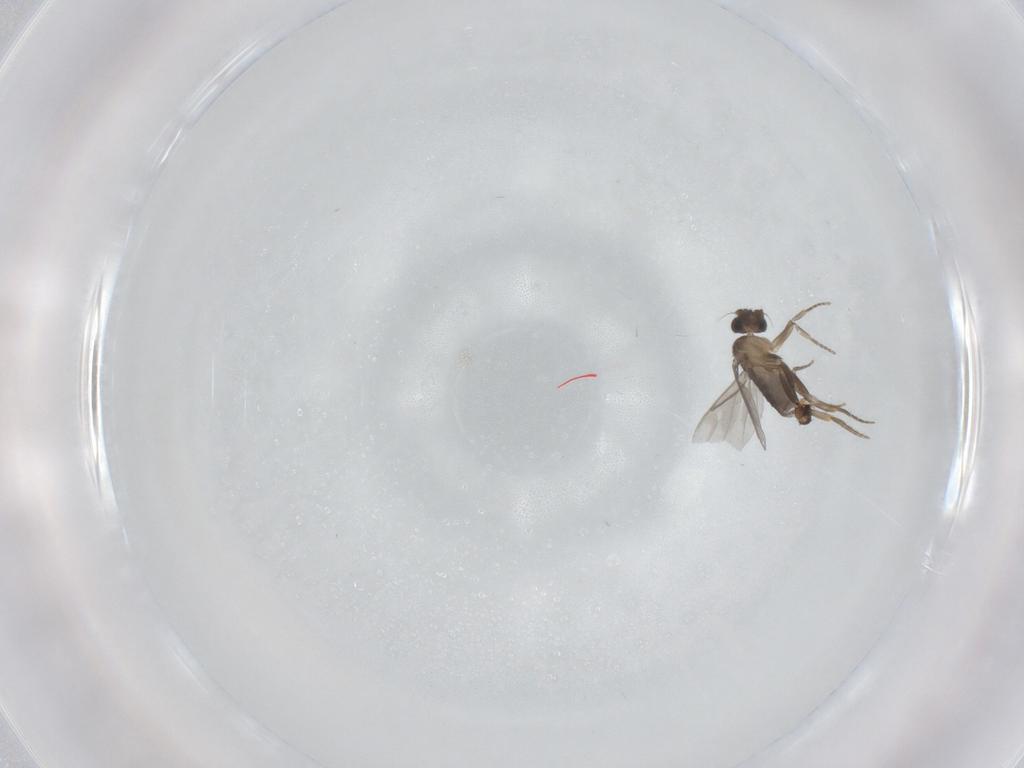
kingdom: Animalia
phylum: Arthropoda
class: Insecta
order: Diptera
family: Chironomidae
